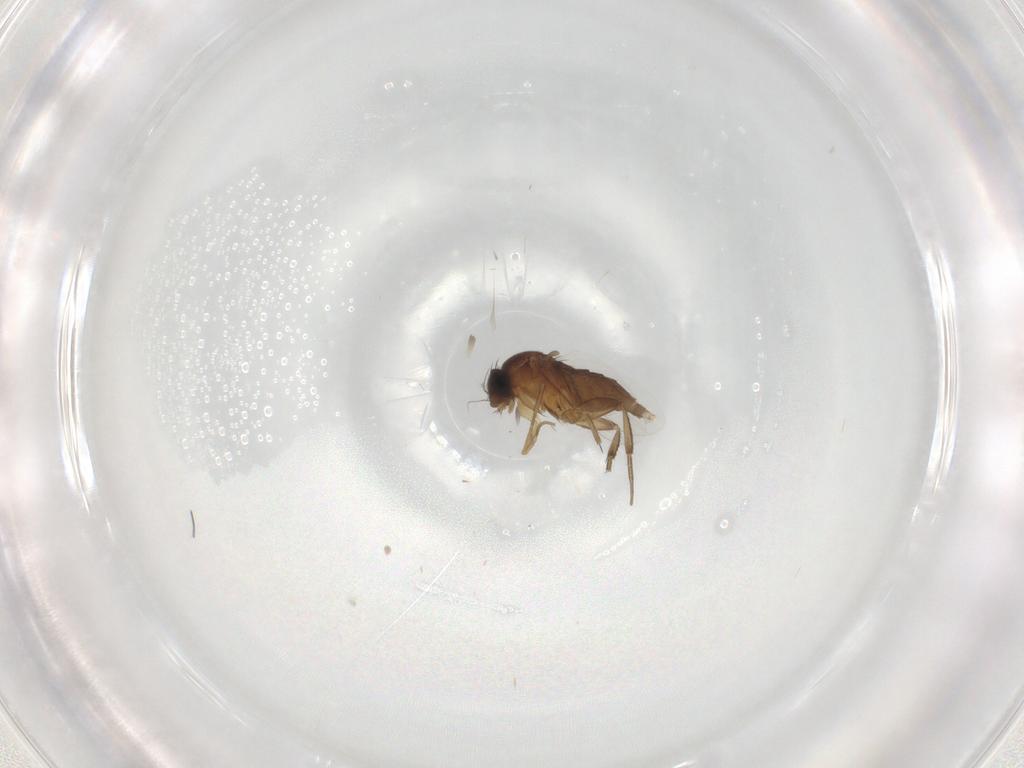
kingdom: Animalia
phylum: Arthropoda
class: Insecta
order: Diptera
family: Cecidomyiidae
